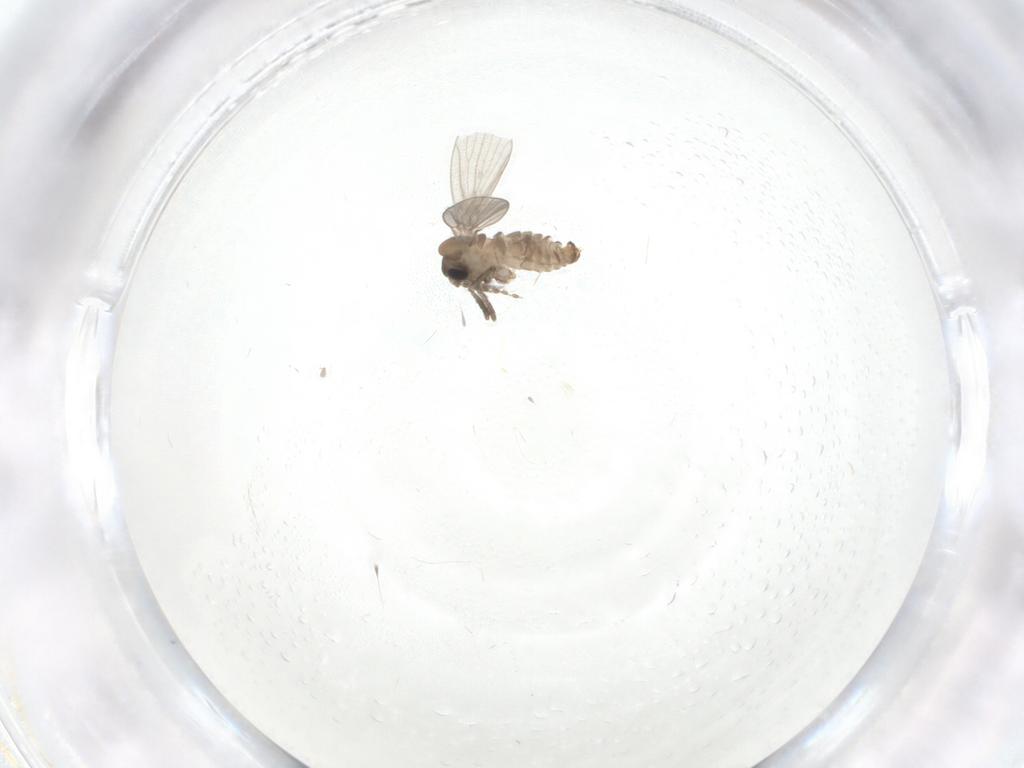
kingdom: Animalia
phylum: Arthropoda
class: Insecta
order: Diptera
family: Psychodidae
